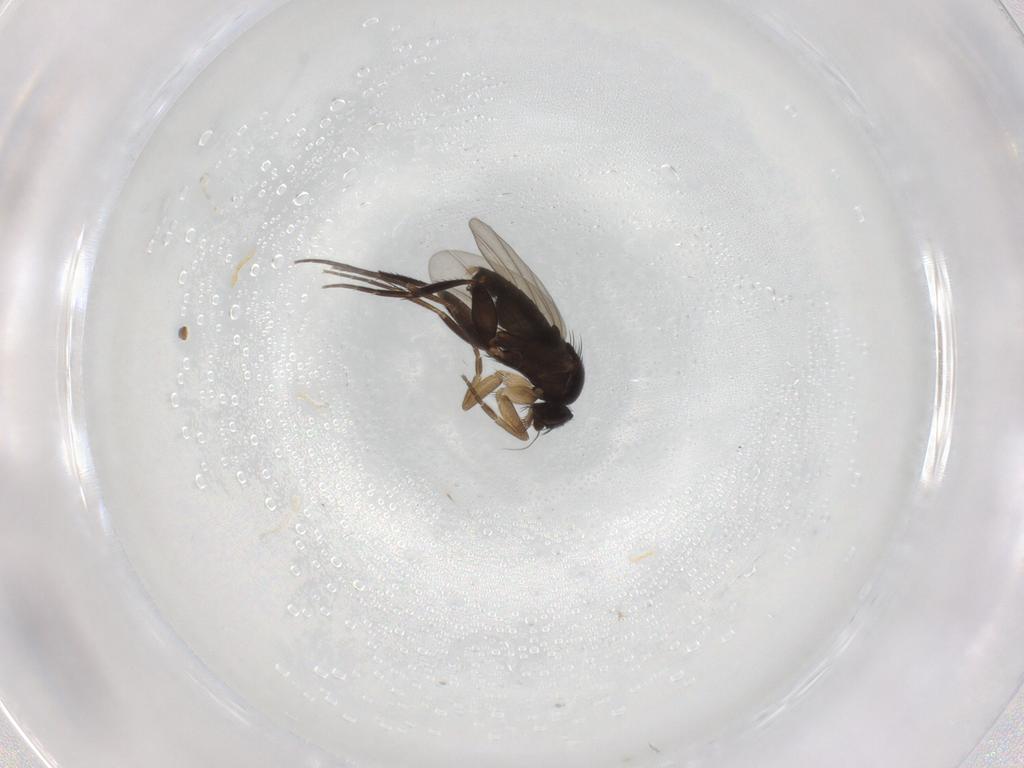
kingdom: Animalia
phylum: Arthropoda
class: Insecta
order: Diptera
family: Phoridae
